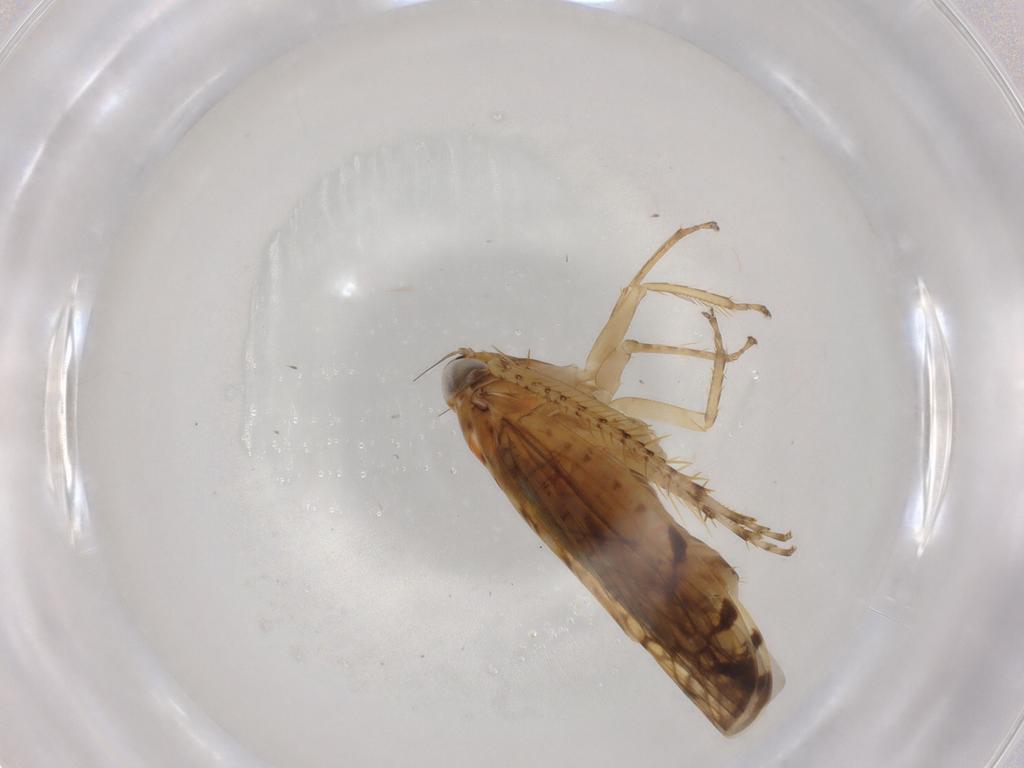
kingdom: Animalia
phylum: Arthropoda
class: Insecta
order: Hemiptera
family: Cicadellidae
